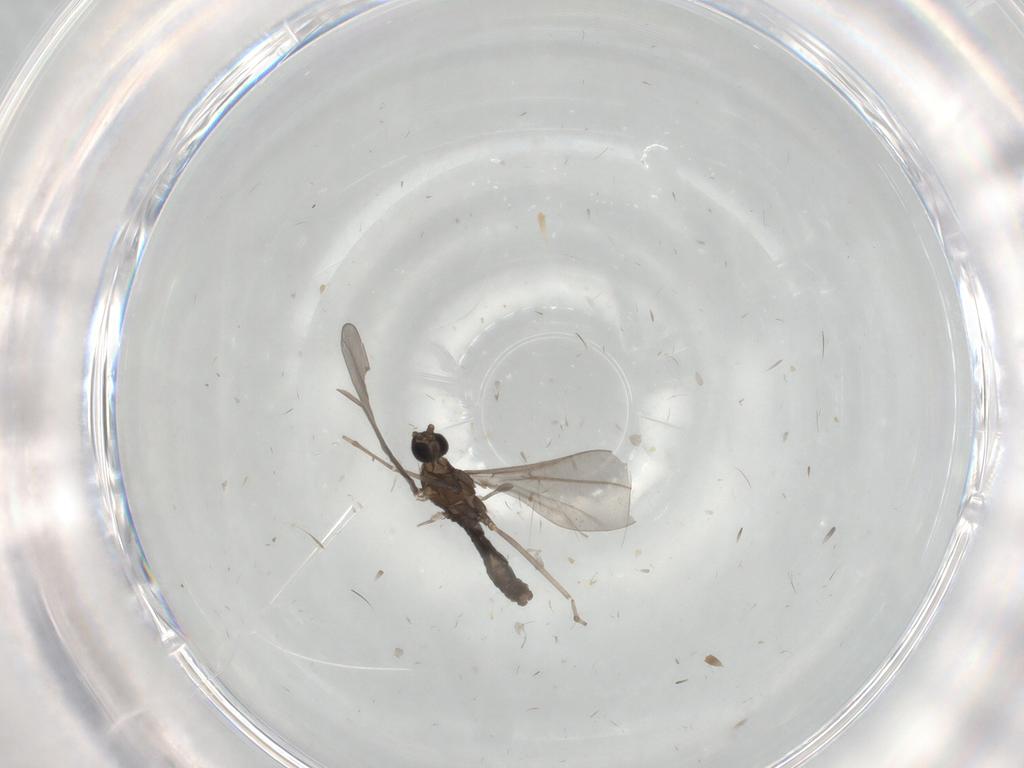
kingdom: Animalia
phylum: Arthropoda
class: Insecta
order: Diptera
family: Cecidomyiidae
